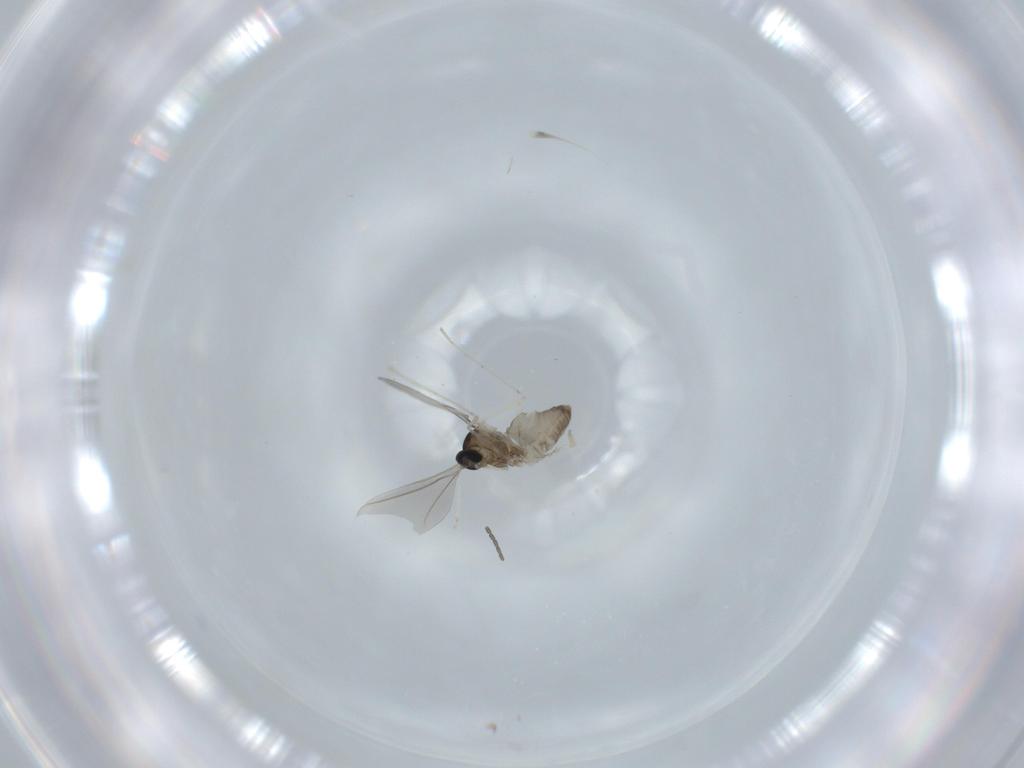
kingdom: Animalia
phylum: Arthropoda
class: Insecta
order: Diptera
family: Cecidomyiidae
